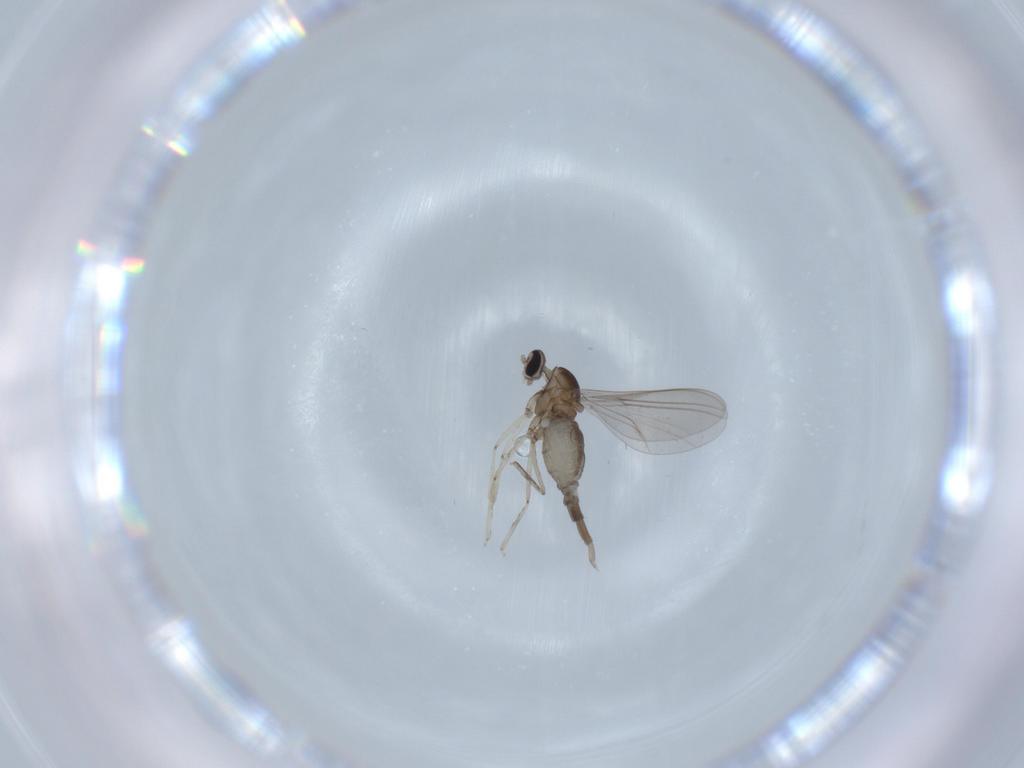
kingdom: Animalia
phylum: Arthropoda
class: Insecta
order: Diptera
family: Cecidomyiidae
